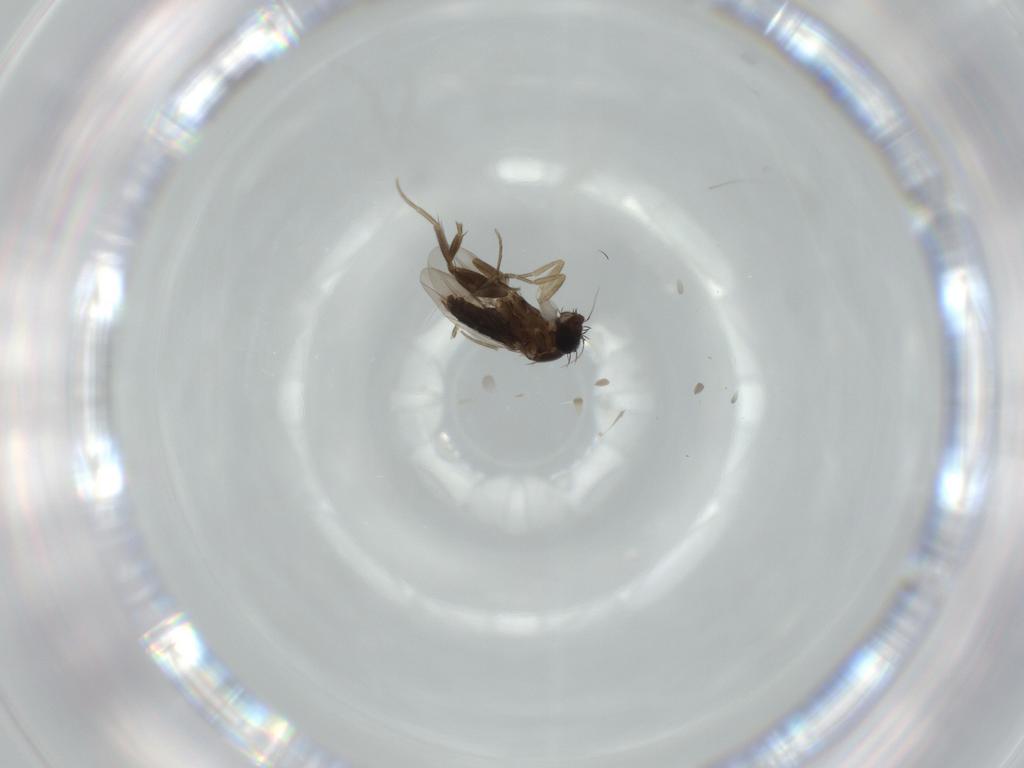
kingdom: Animalia
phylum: Arthropoda
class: Insecta
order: Diptera
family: Phoridae
